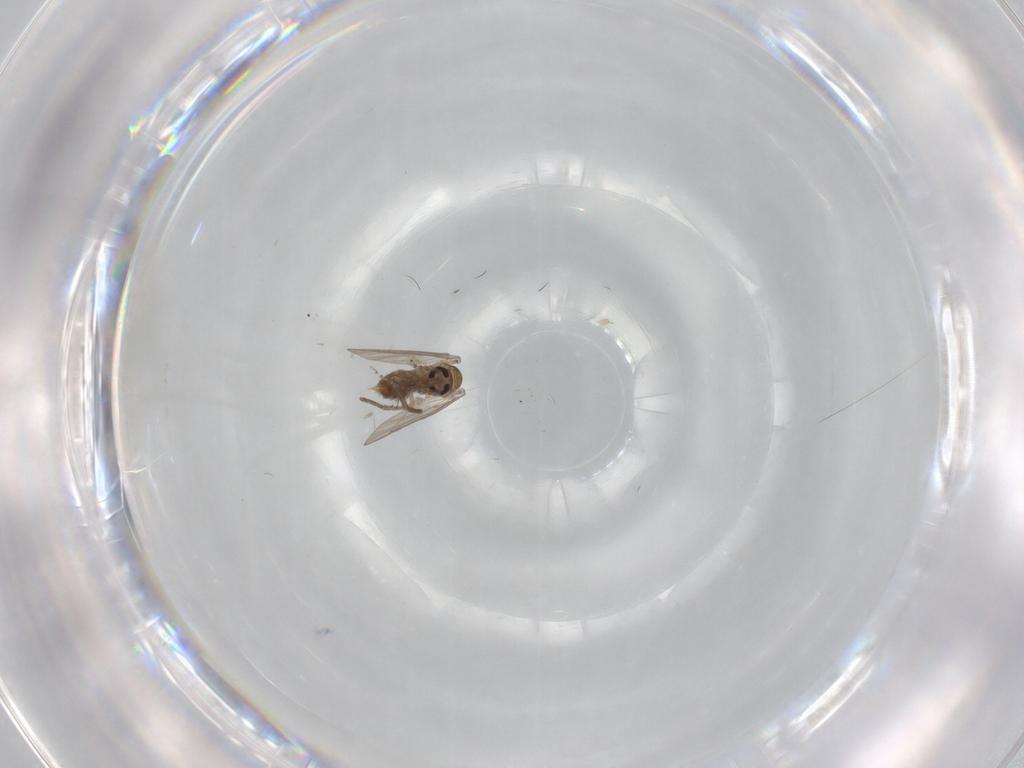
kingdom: Animalia
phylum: Arthropoda
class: Insecta
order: Diptera
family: Psychodidae
